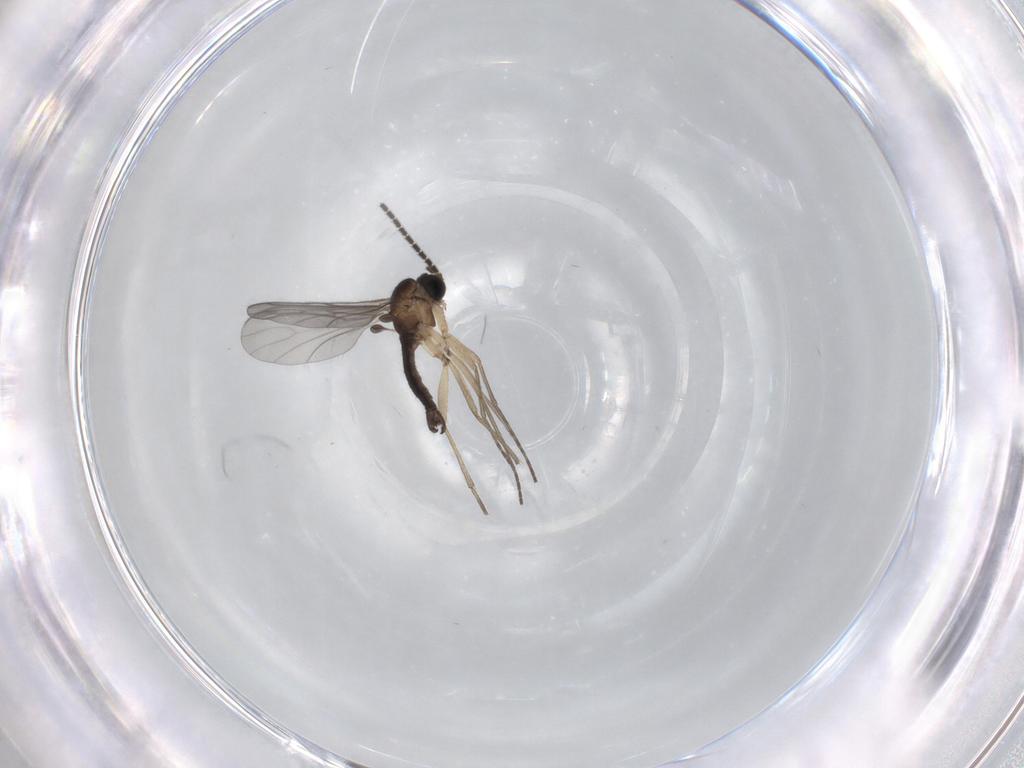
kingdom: Animalia
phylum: Arthropoda
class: Insecta
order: Diptera
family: Sciaridae
